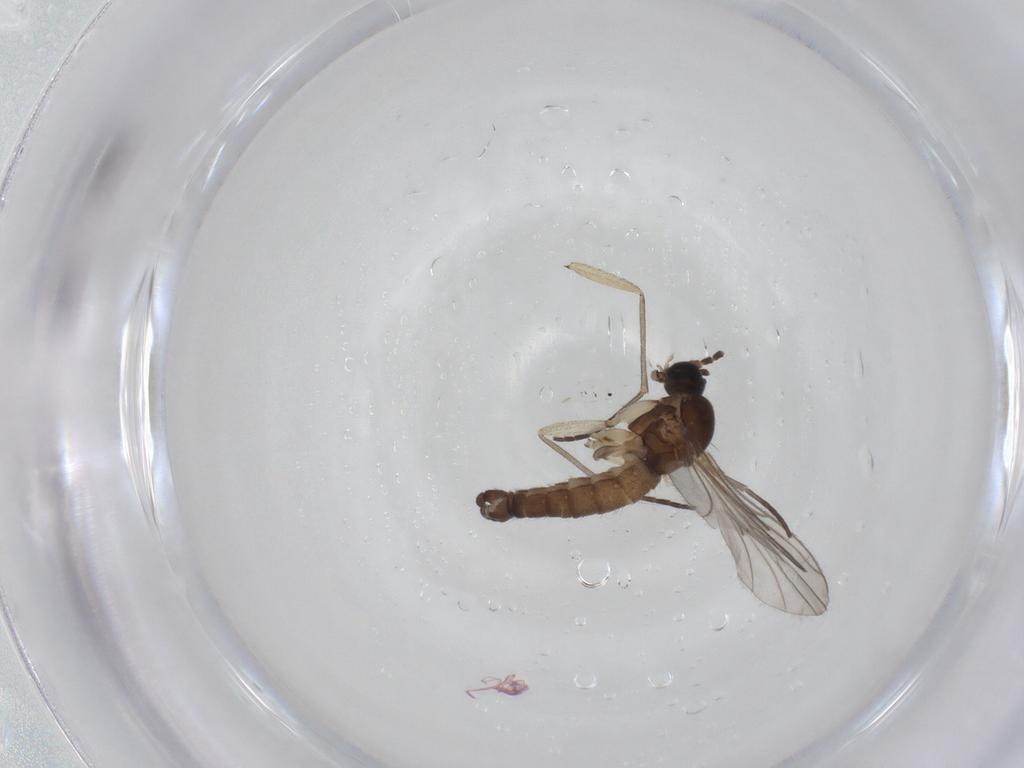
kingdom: Animalia
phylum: Arthropoda
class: Insecta
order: Diptera
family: Sciaridae
